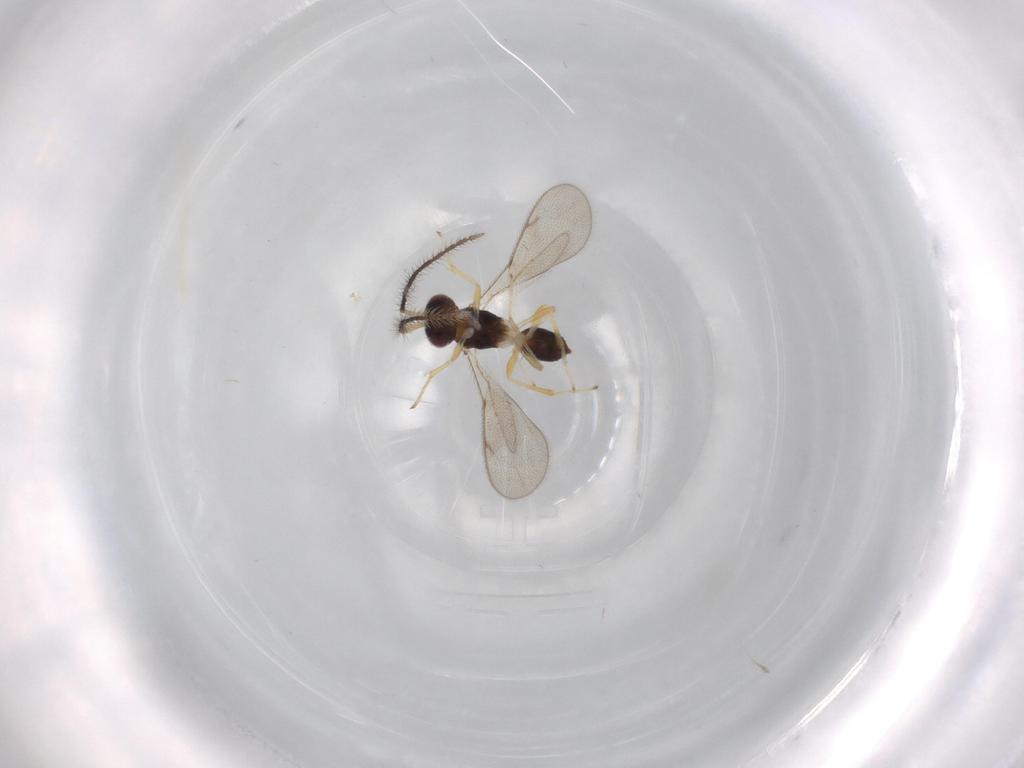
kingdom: Animalia
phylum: Arthropoda
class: Insecta
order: Hymenoptera
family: Diparidae
